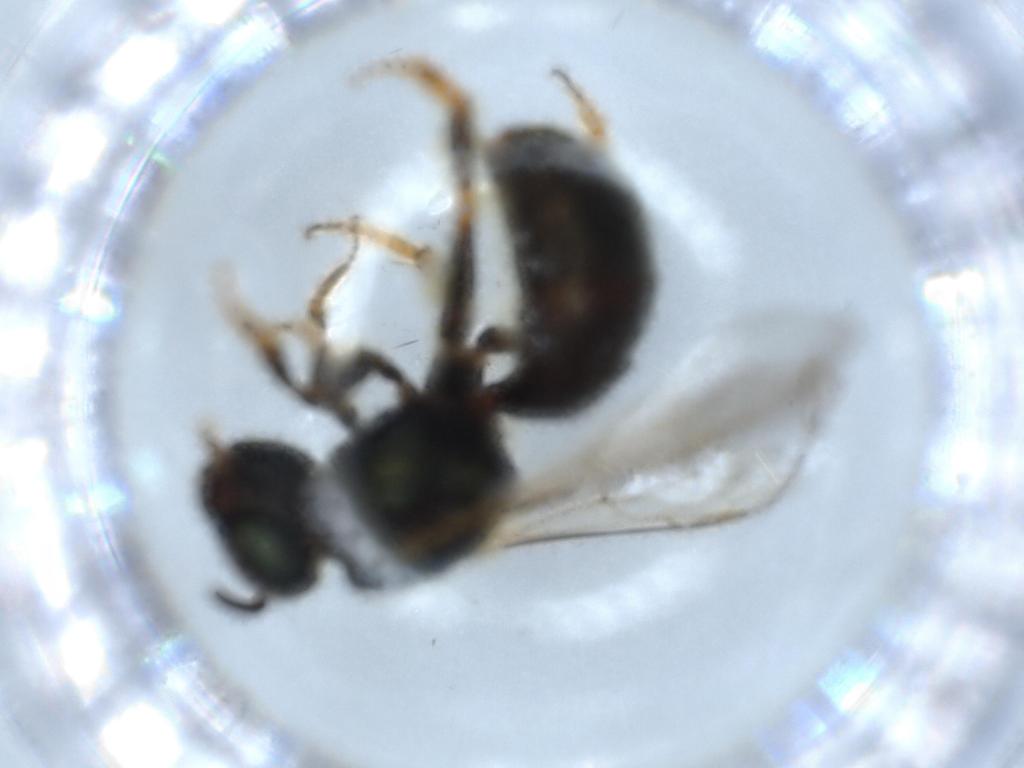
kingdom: Animalia
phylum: Arthropoda
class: Insecta
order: Hymenoptera
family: Halictidae
